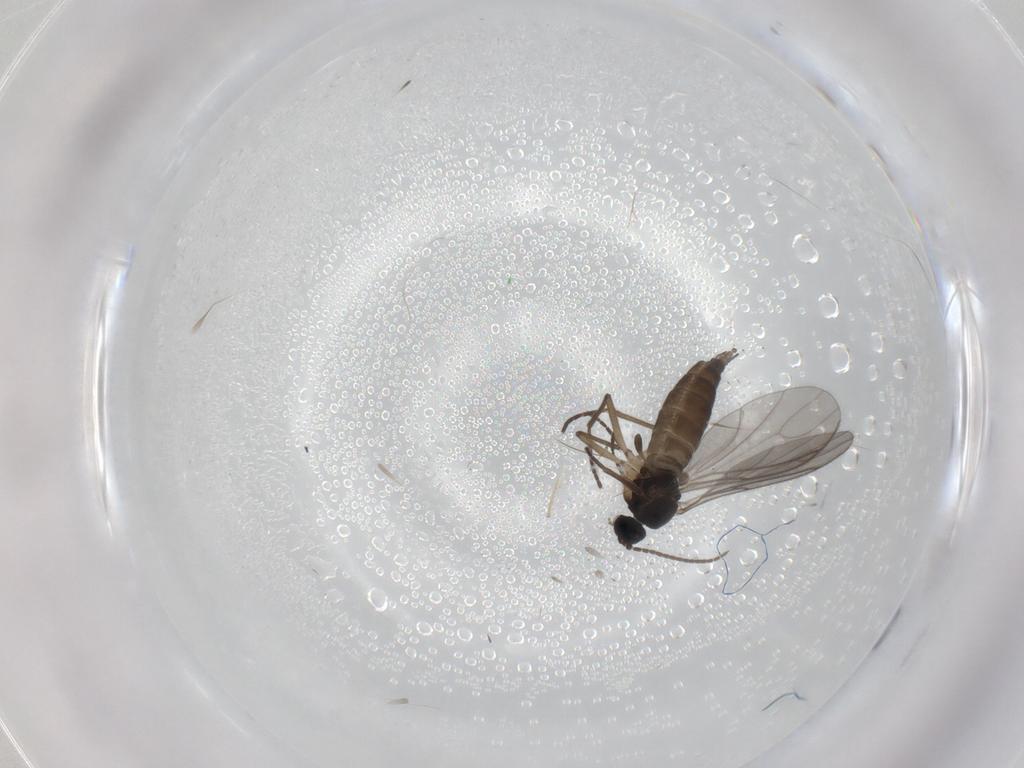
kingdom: Animalia
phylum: Arthropoda
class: Insecta
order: Diptera
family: Sciaridae
